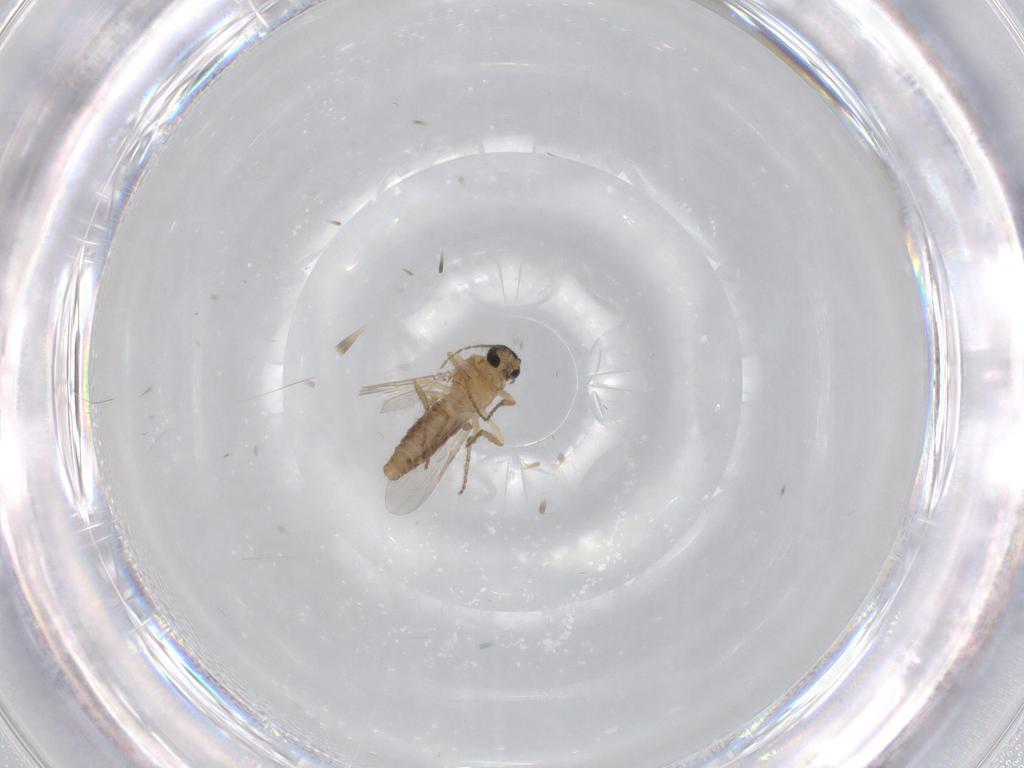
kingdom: Animalia
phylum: Arthropoda
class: Insecta
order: Diptera
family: Ceratopogonidae
